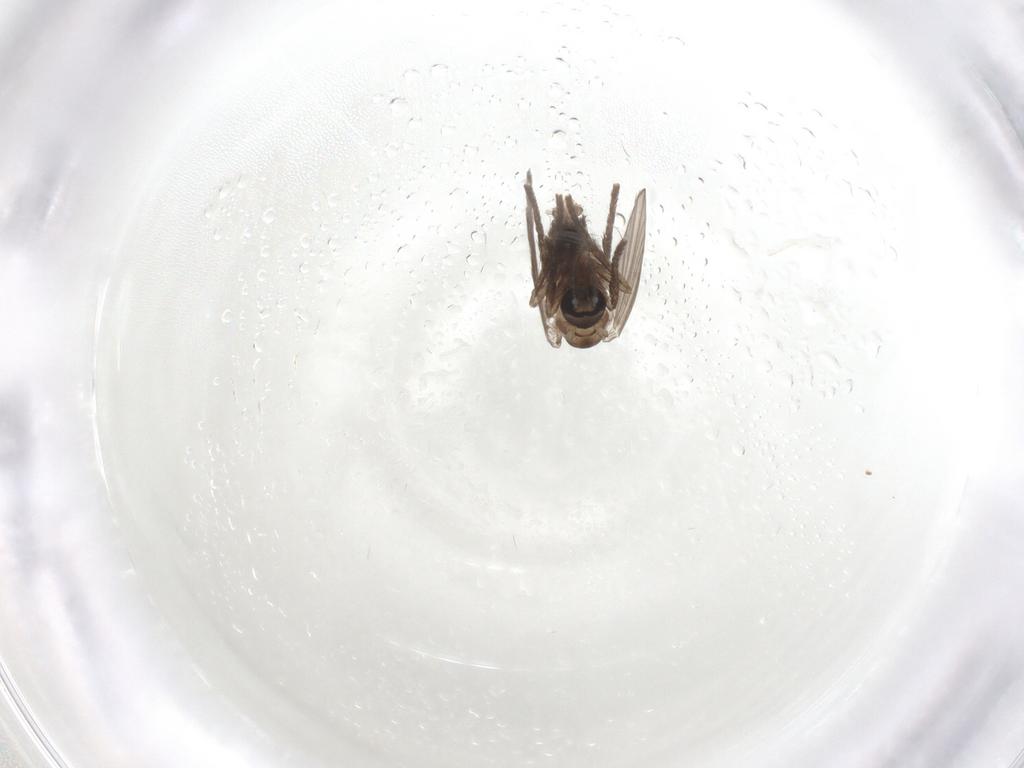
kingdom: Animalia
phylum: Arthropoda
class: Insecta
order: Diptera
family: Psychodidae
